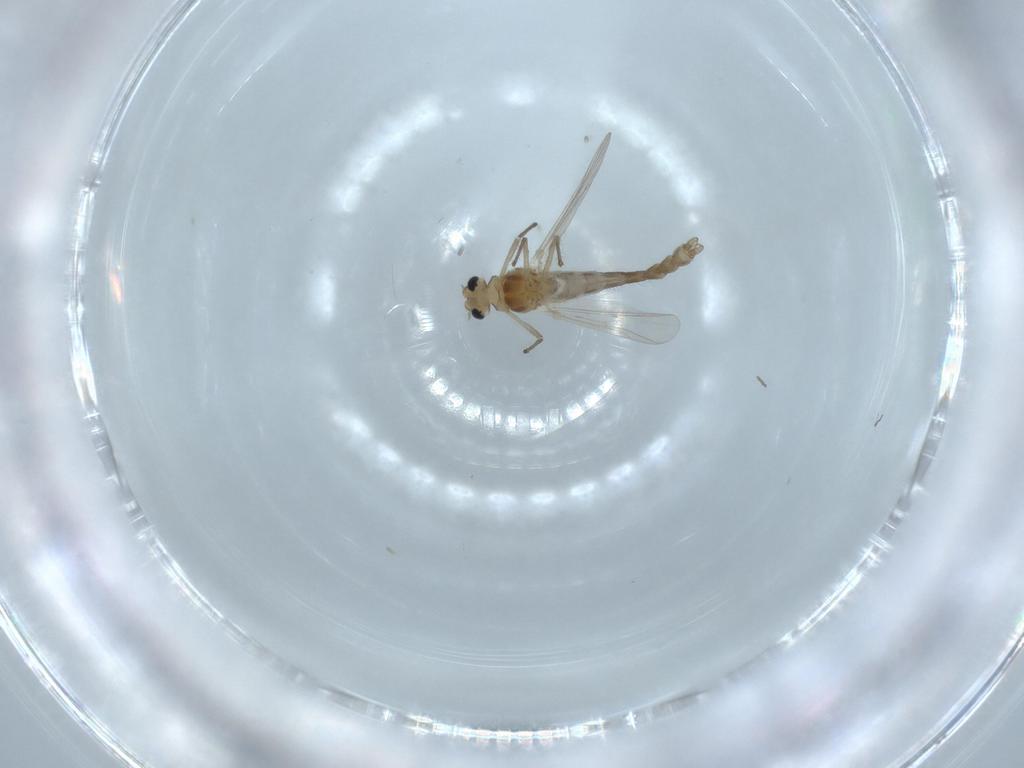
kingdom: Animalia
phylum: Arthropoda
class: Insecta
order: Diptera
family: Chironomidae
